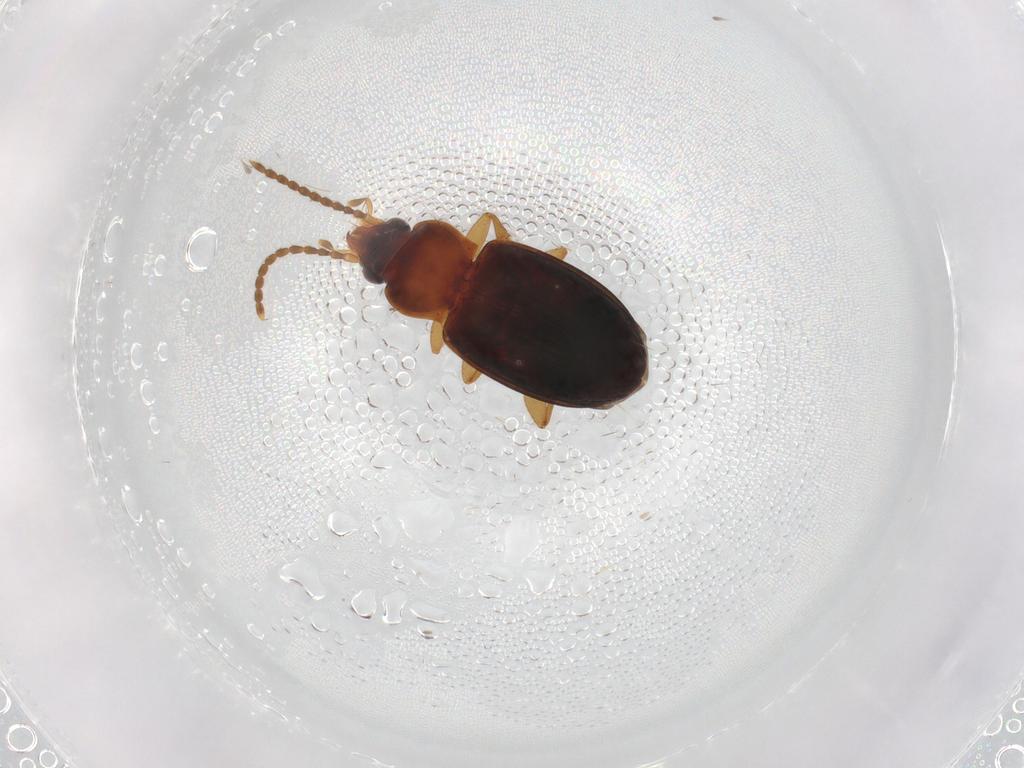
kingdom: Animalia
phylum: Arthropoda
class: Insecta
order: Coleoptera
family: Carabidae
